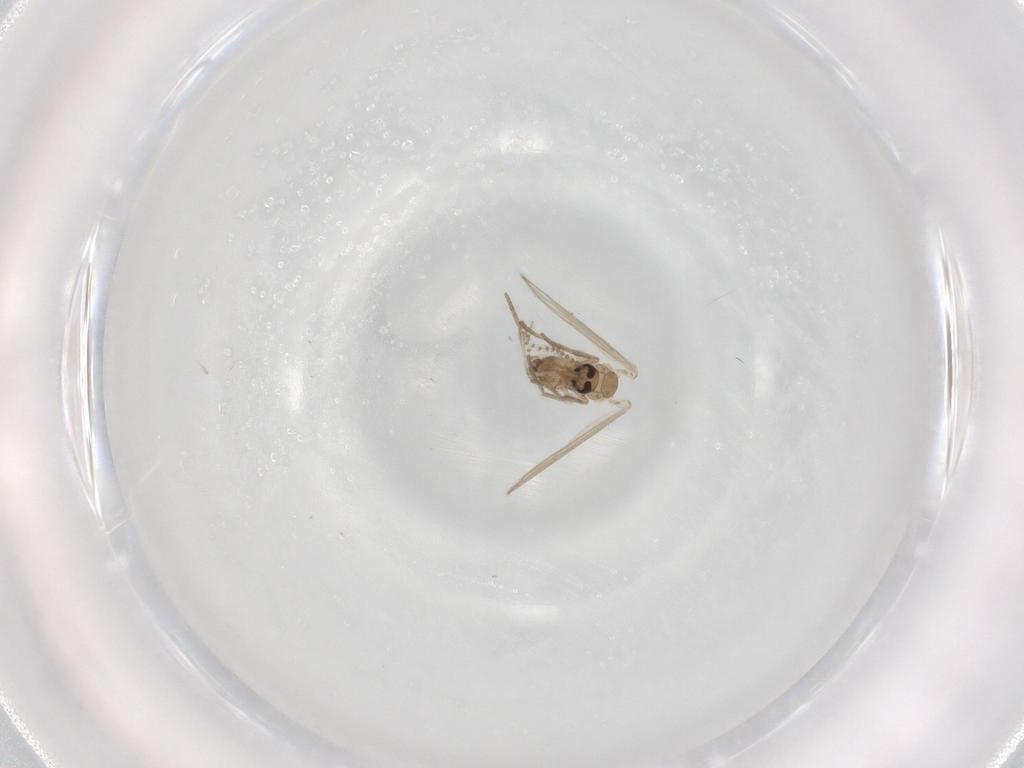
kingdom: Animalia
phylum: Arthropoda
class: Insecta
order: Diptera
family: Psychodidae
